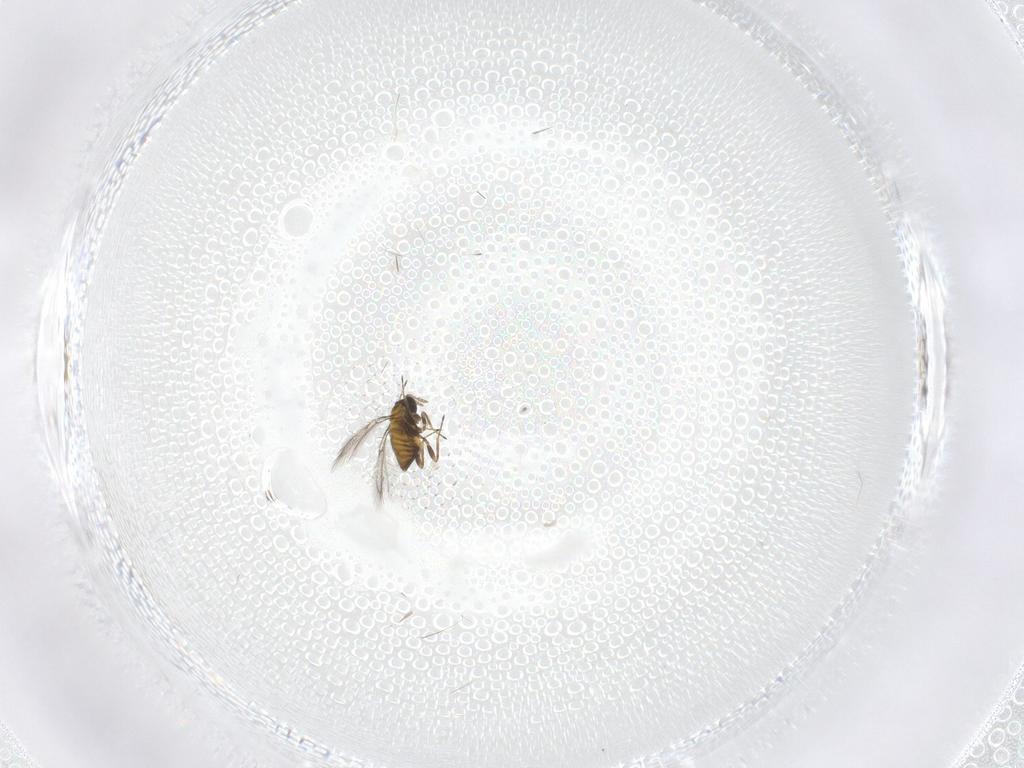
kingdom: Animalia
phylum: Arthropoda
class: Insecta
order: Hymenoptera
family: Trichogrammatidae
